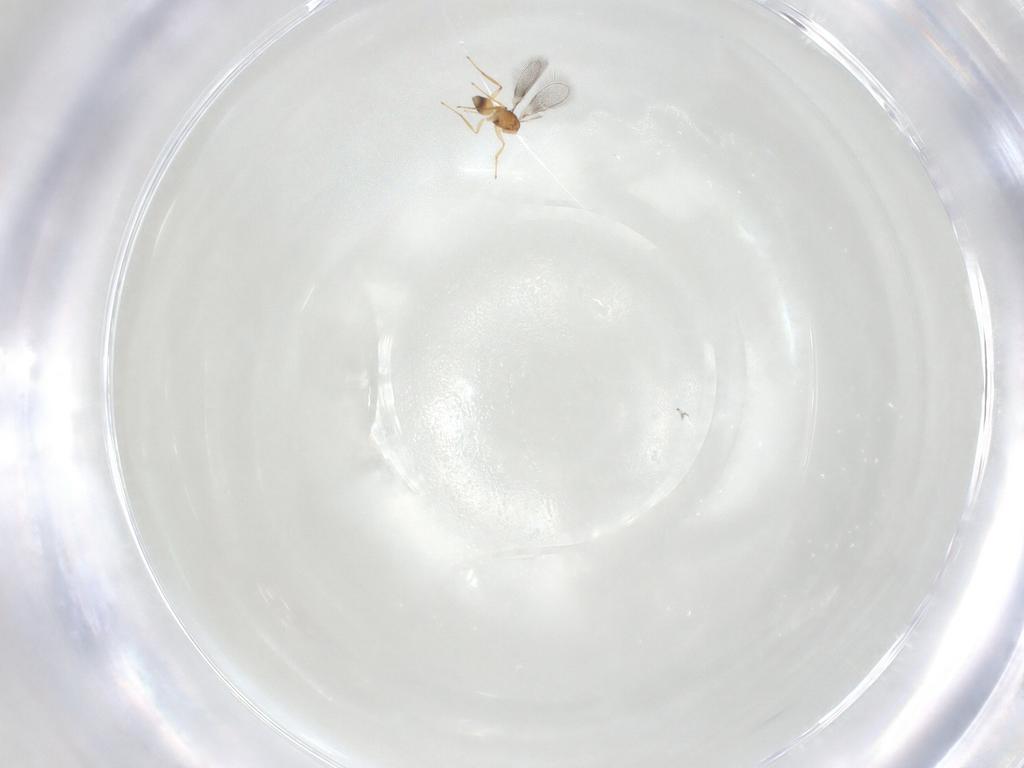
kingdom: Animalia
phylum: Arthropoda
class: Insecta
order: Hymenoptera
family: Mymaridae
